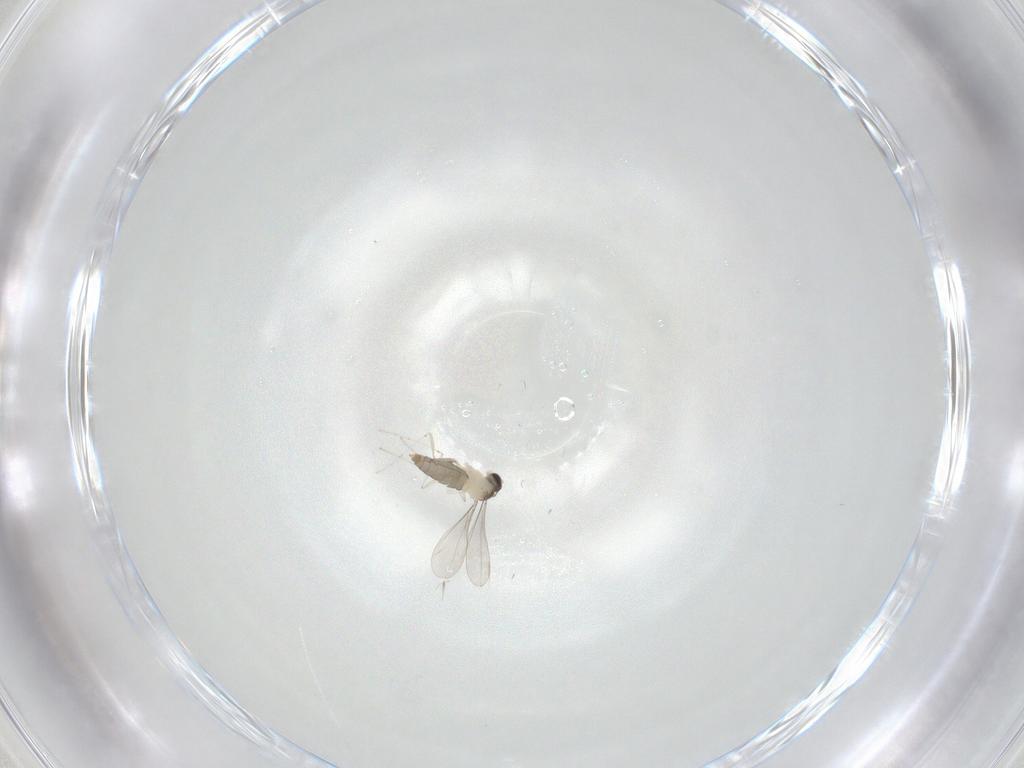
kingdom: Animalia
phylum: Arthropoda
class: Insecta
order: Diptera
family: Cecidomyiidae
